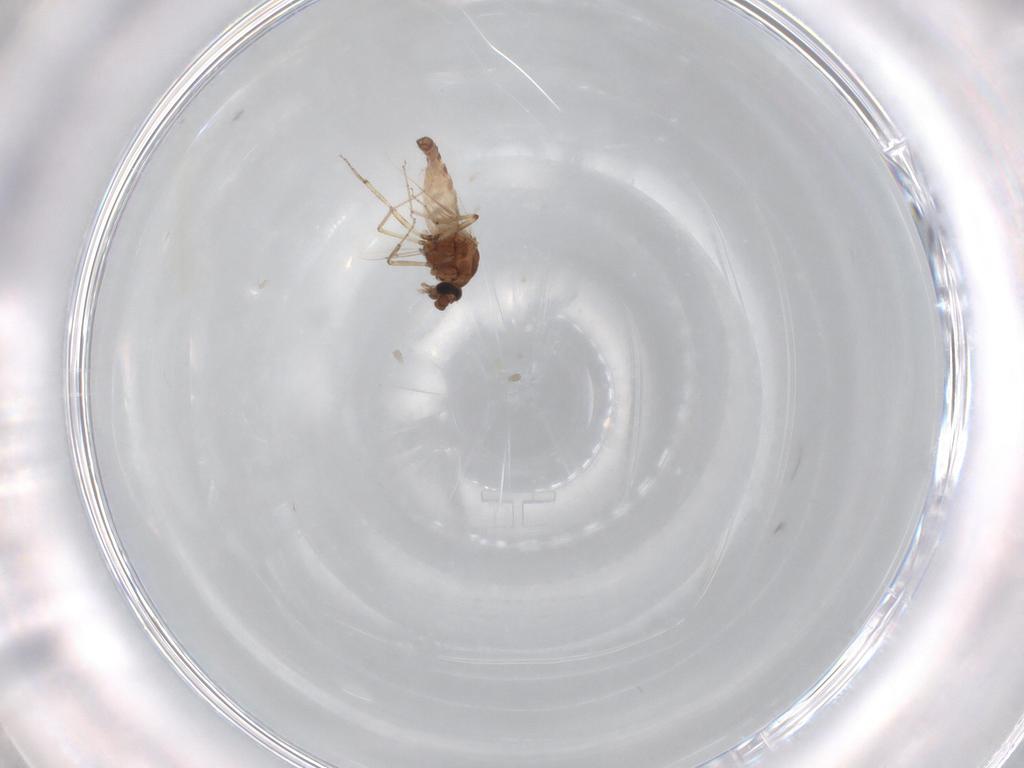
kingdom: Animalia
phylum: Arthropoda
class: Insecta
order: Diptera
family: Ceratopogonidae
